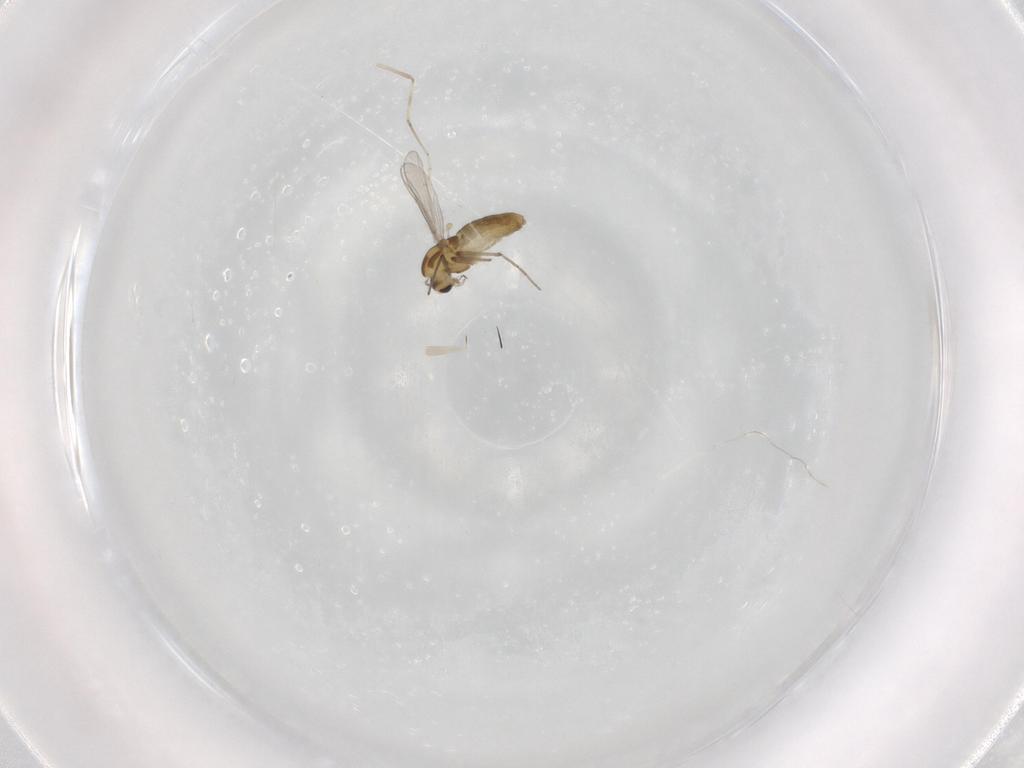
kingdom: Animalia
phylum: Arthropoda
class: Insecta
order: Diptera
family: Chironomidae
